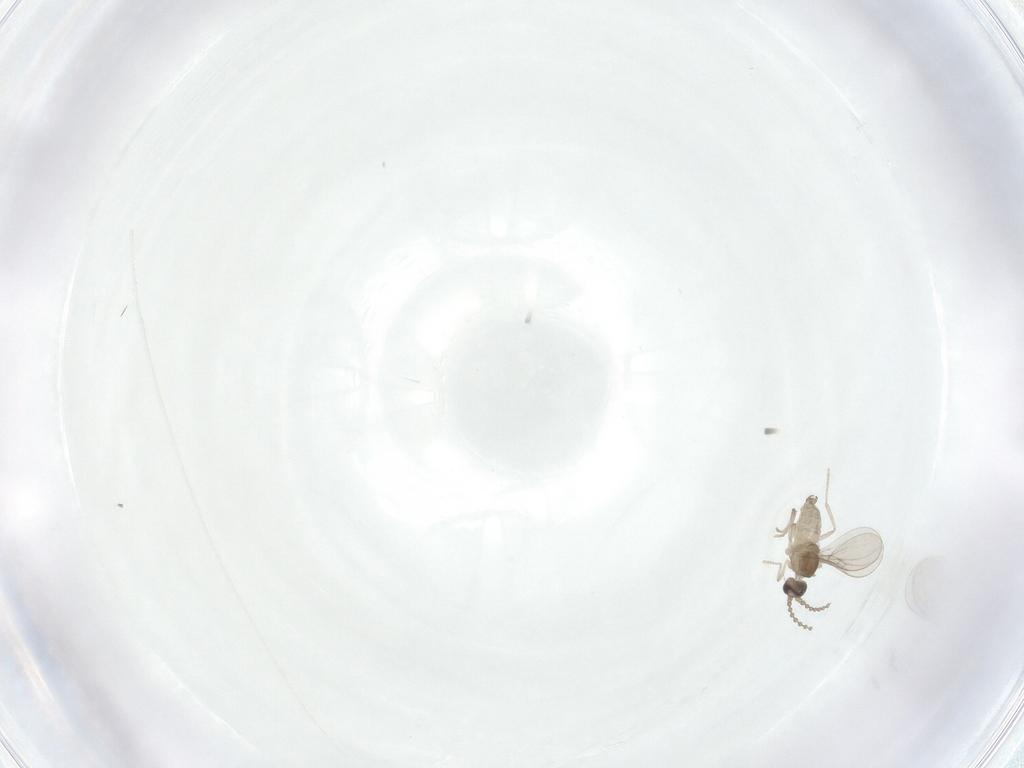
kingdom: Animalia
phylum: Arthropoda
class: Insecta
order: Diptera
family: Cecidomyiidae
